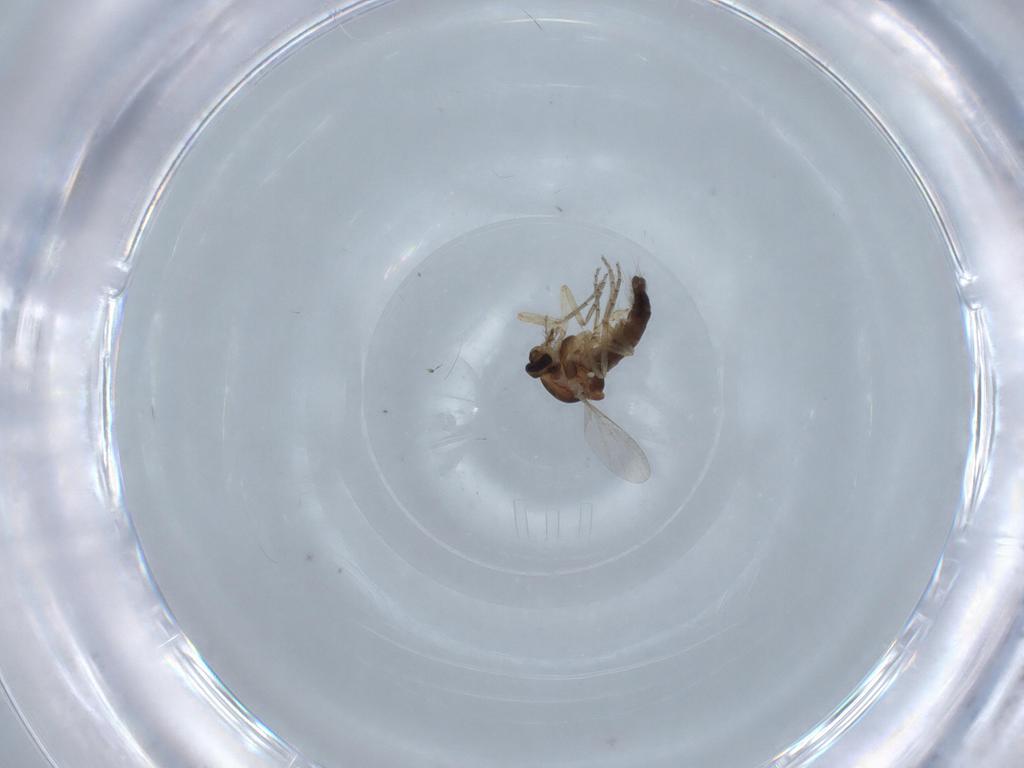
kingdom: Animalia
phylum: Arthropoda
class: Insecta
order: Diptera
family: Ceratopogonidae
